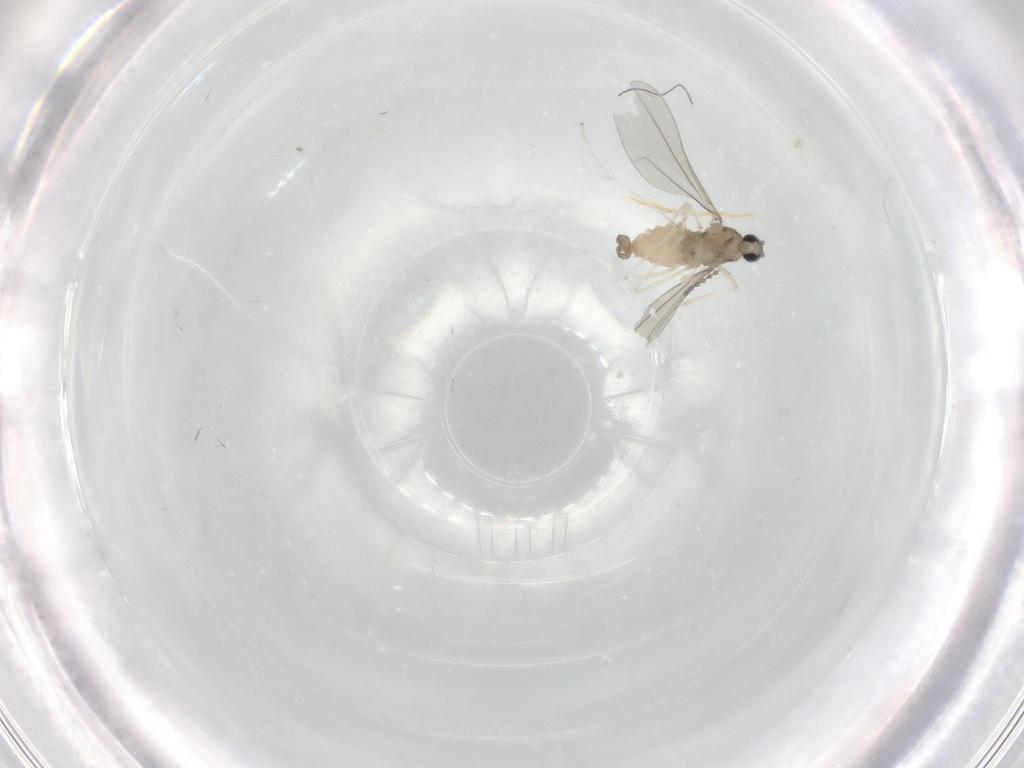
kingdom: Animalia
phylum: Arthropoda
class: Insecta
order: Diptera
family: Cecidomyiidae
